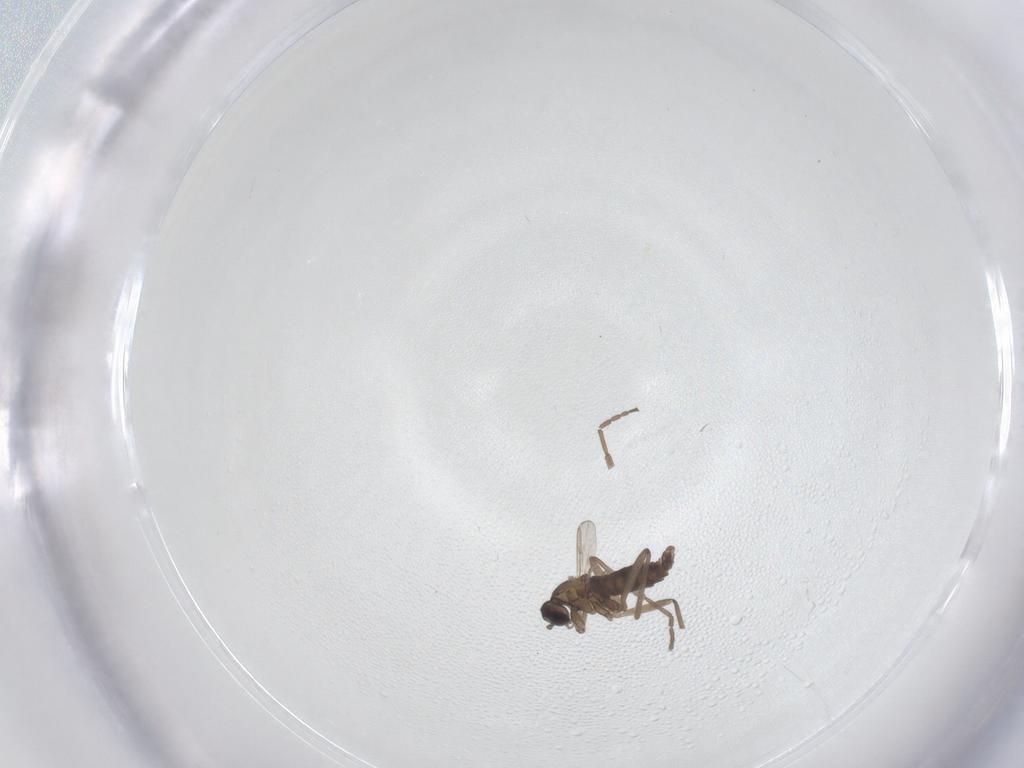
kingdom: Animalia
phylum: Arthropoda
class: Insecta
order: Diptera
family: Cecidomyiidae
